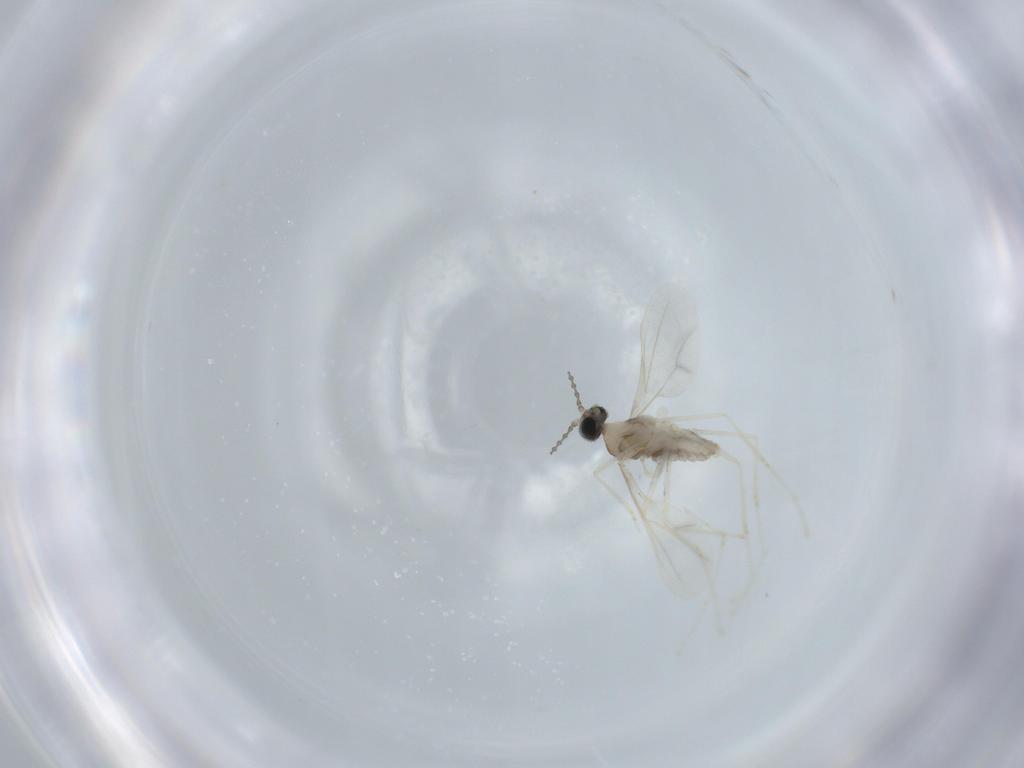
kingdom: Animalia
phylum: Arthropoda
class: Insecta
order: Diptera
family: Cecidomyiidae
